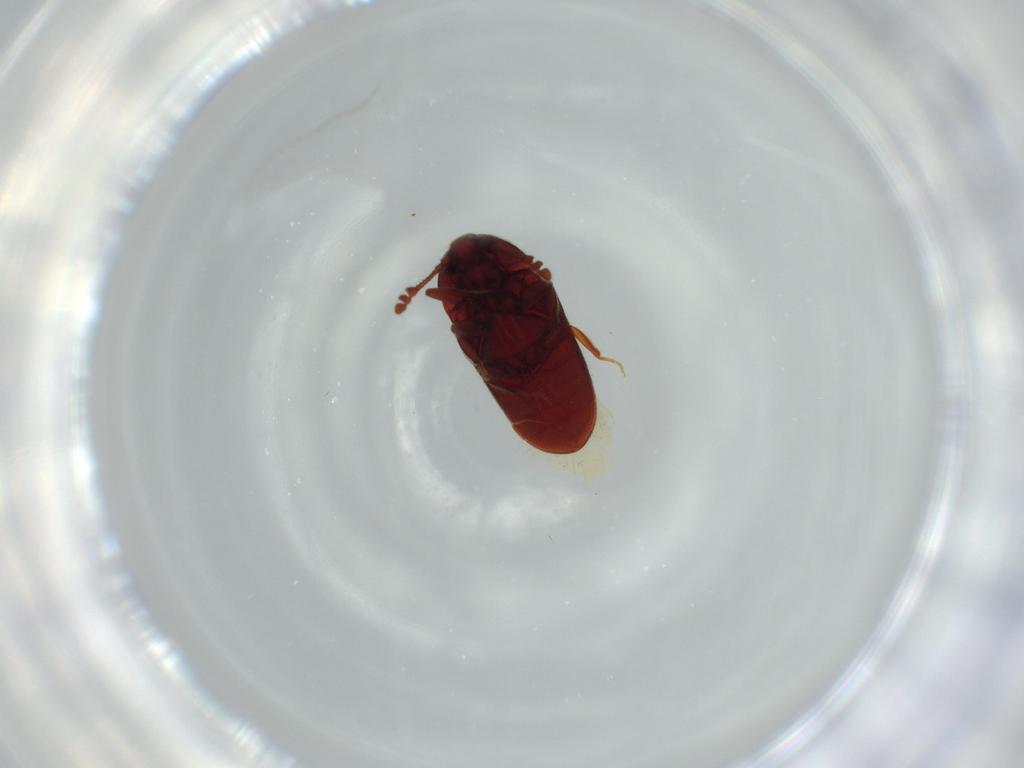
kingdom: Animalia
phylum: Arthropoda
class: Insecta
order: Coleoptera
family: Throscidae
